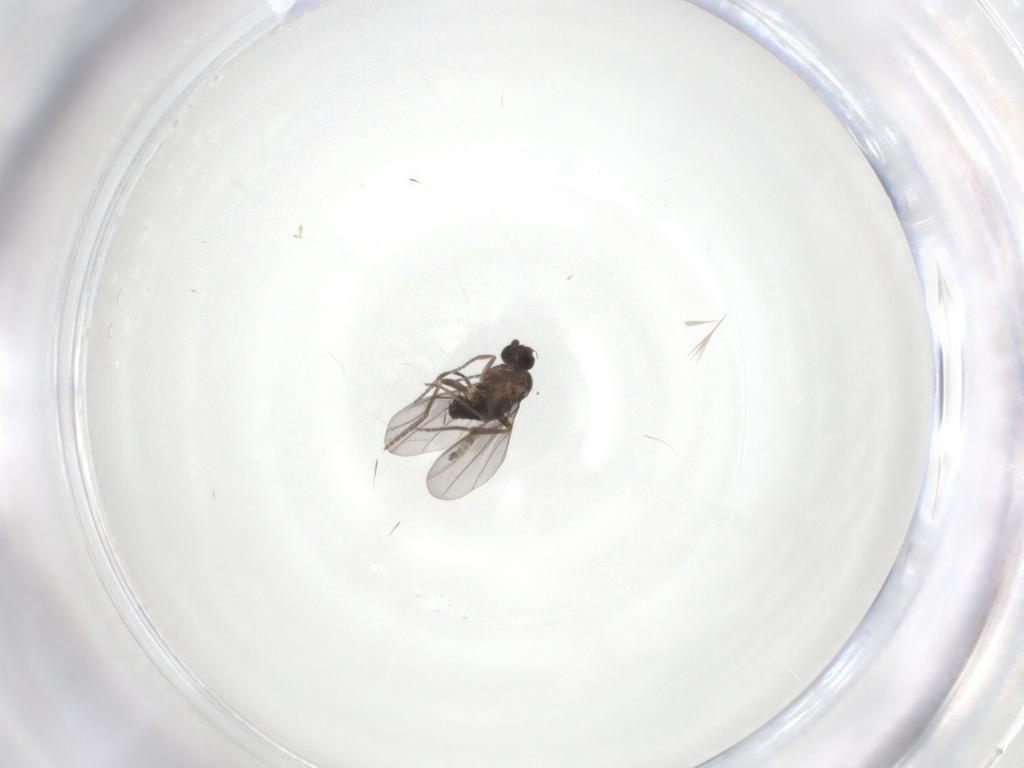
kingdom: Animalia
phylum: Arthropoda
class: Insecta
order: Diptera
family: Phoridae
